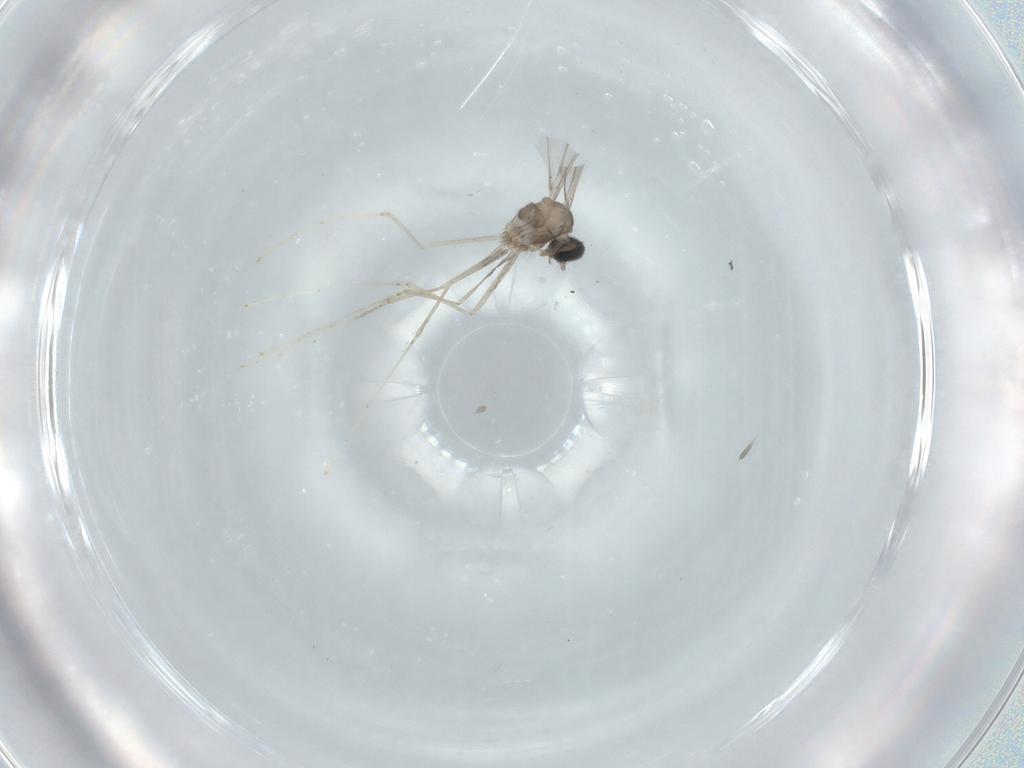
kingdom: Animalia
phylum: Arthropoda
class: Insecta
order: Diptera
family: Cecidomyiidae
